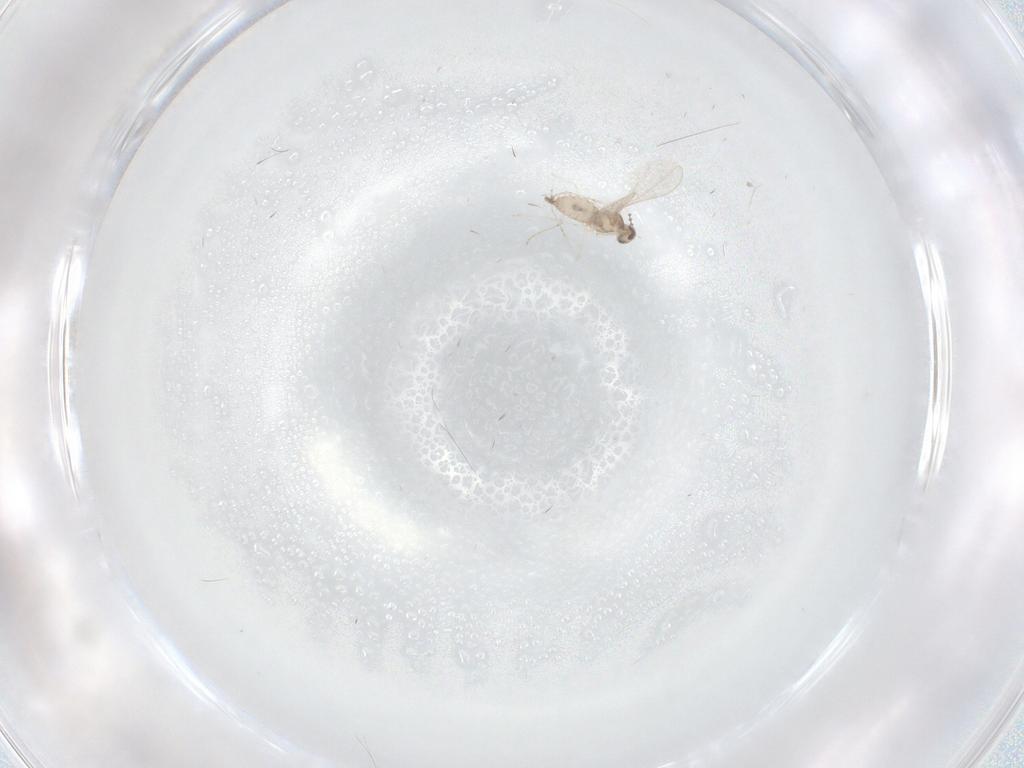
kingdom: Animalia
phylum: Arthropoda
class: Insecta
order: Diptera
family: Cecidomyiidae
